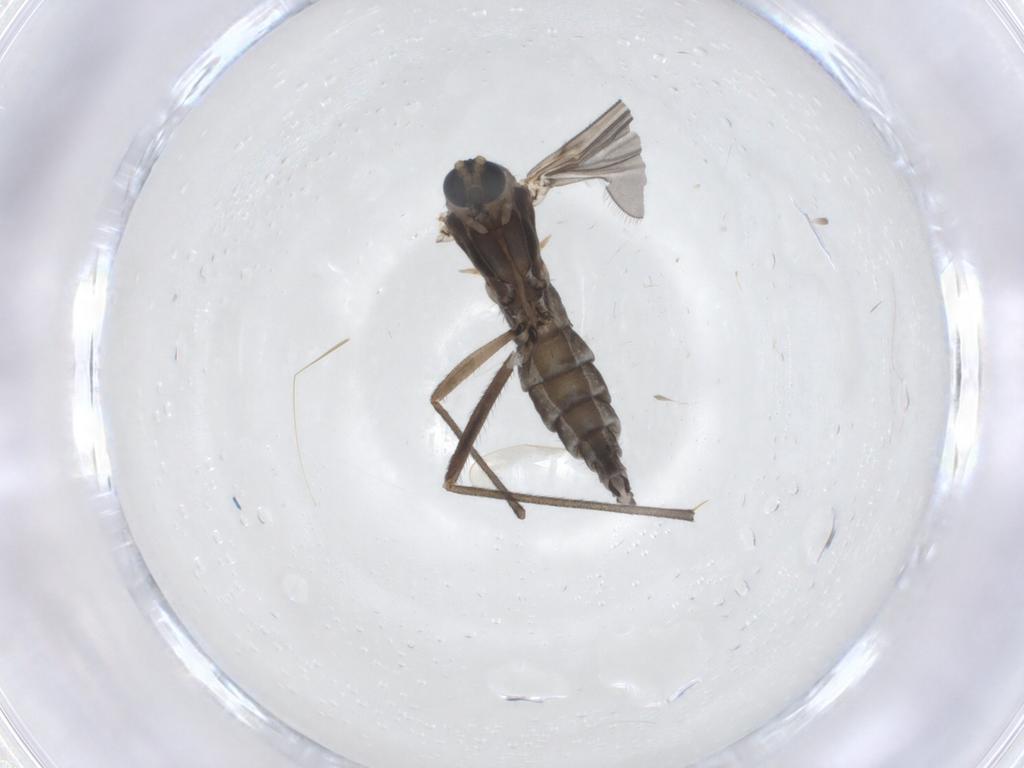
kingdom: Animalia
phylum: Arthropoda
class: Insecta
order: Diptera
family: Sciaridae
